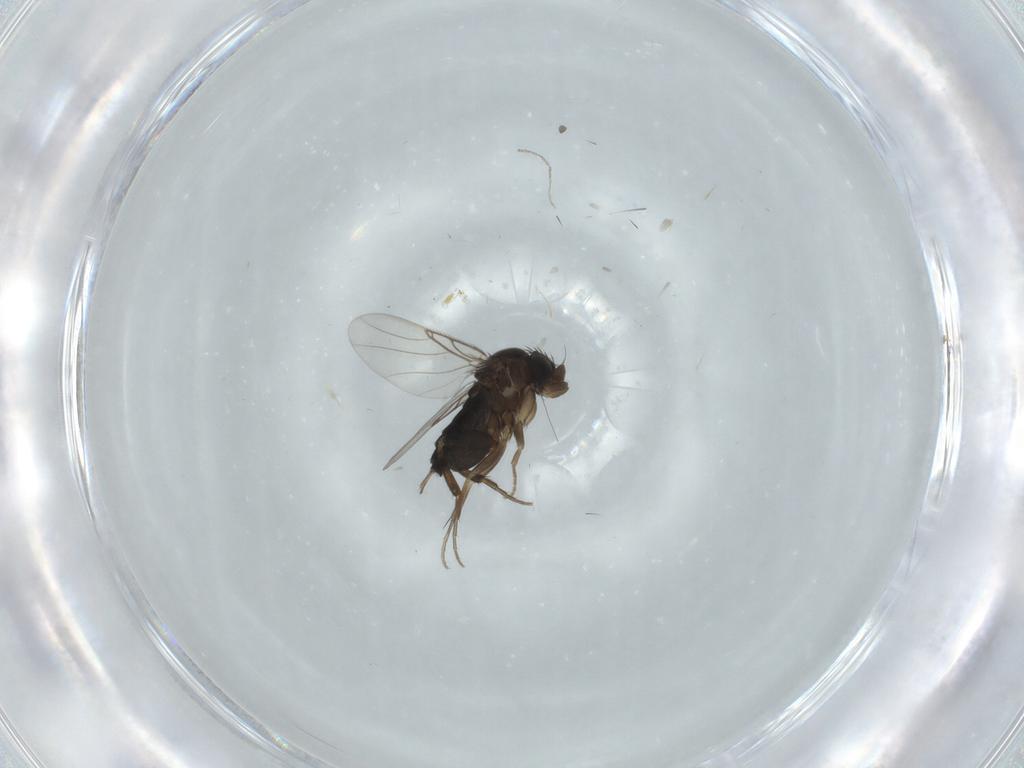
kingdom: Animalia
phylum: Arthropoda
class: Insecta
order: Diptera
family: Phoridae
